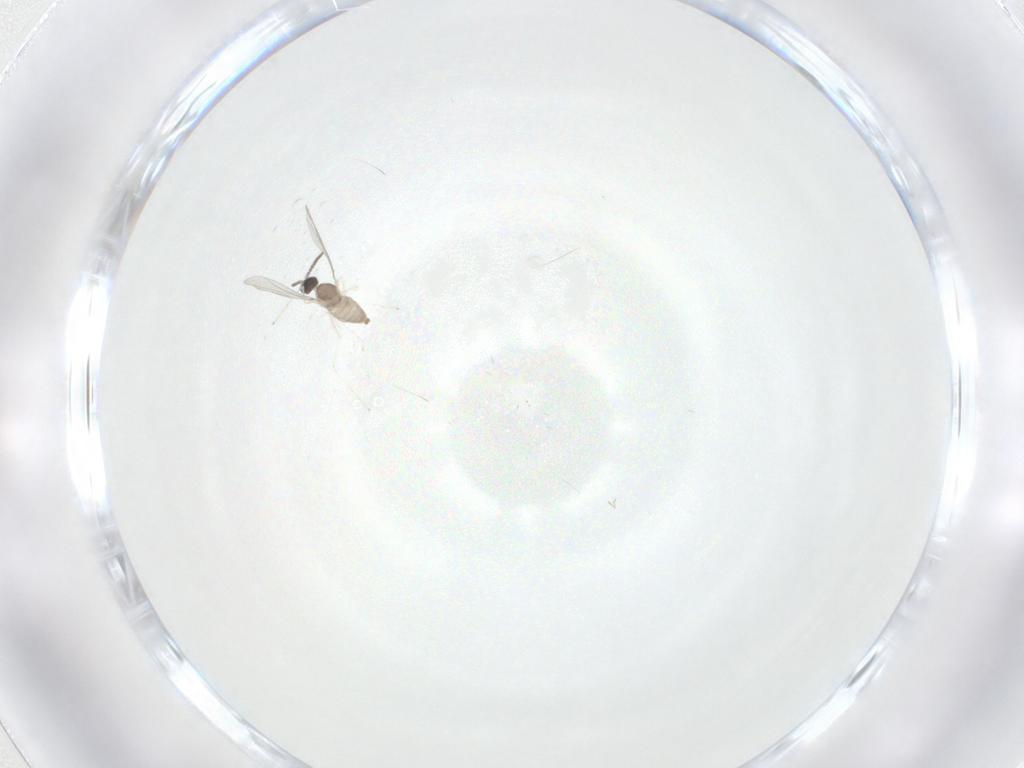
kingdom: Animalia
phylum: Arthropoda
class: Insecta
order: Diptera
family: Cecidomyiidae
